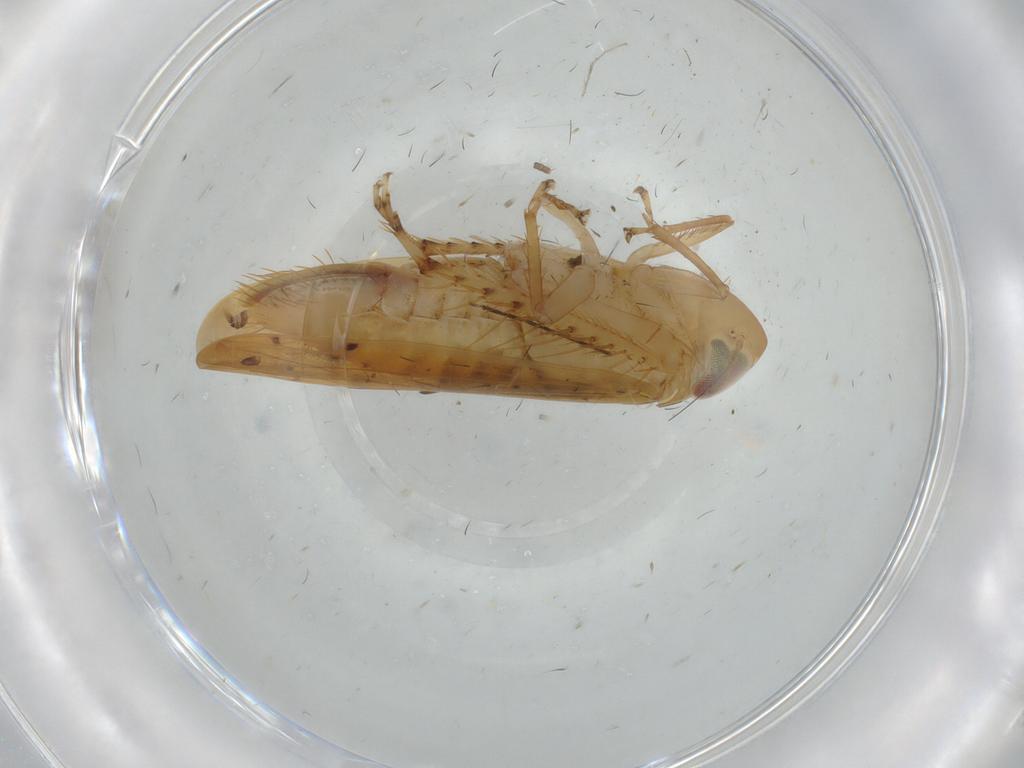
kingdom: Animalia
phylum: Arthropoda
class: Insecta
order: Hemiptera
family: Cicadellidae
